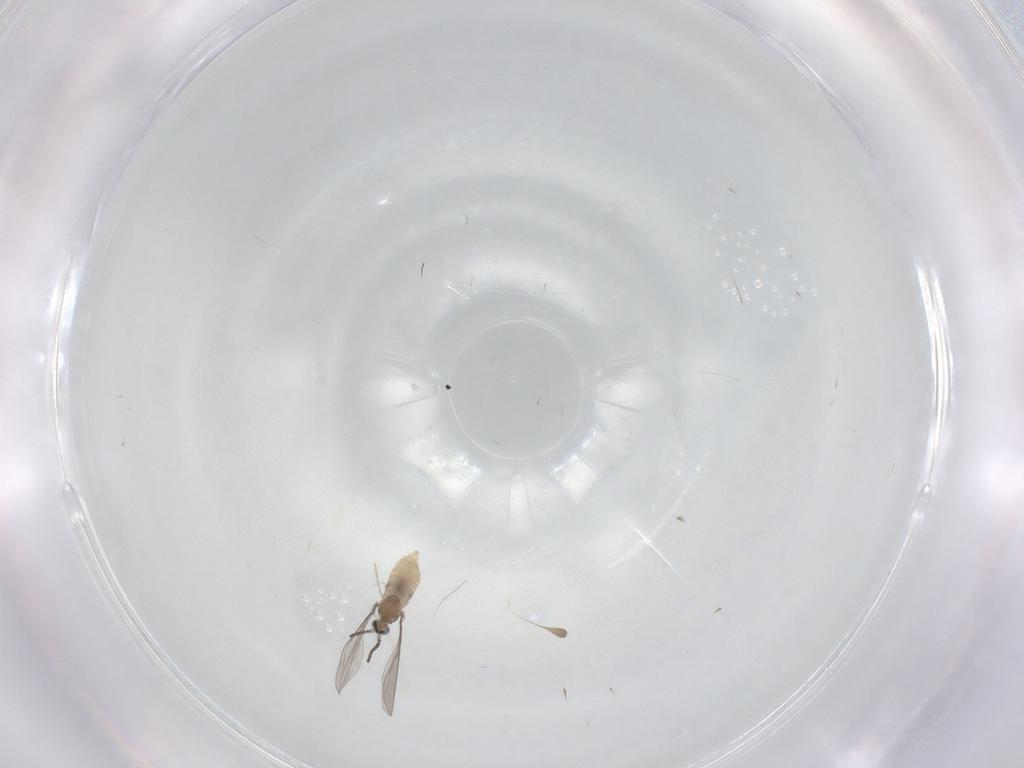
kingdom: Animalia
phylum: Arthropoda
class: Insecta
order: Diptera
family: Cecidomyiidae
